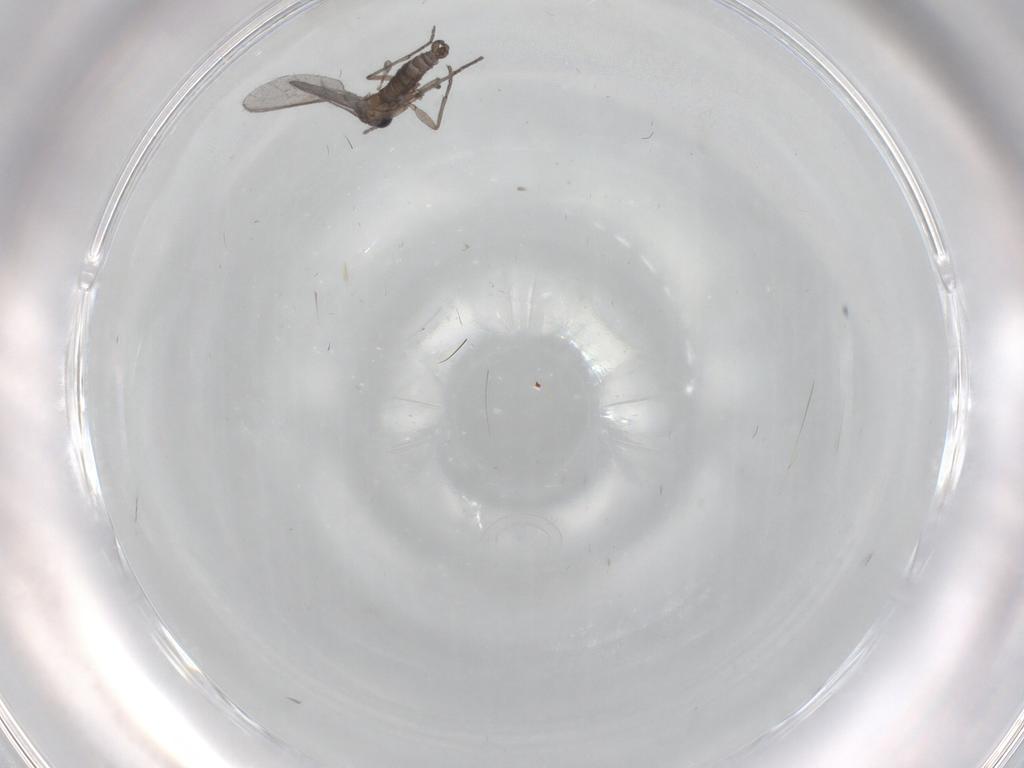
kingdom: Animalia
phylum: Arthropoda
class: Insecta
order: Diptera
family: Sciaridae
